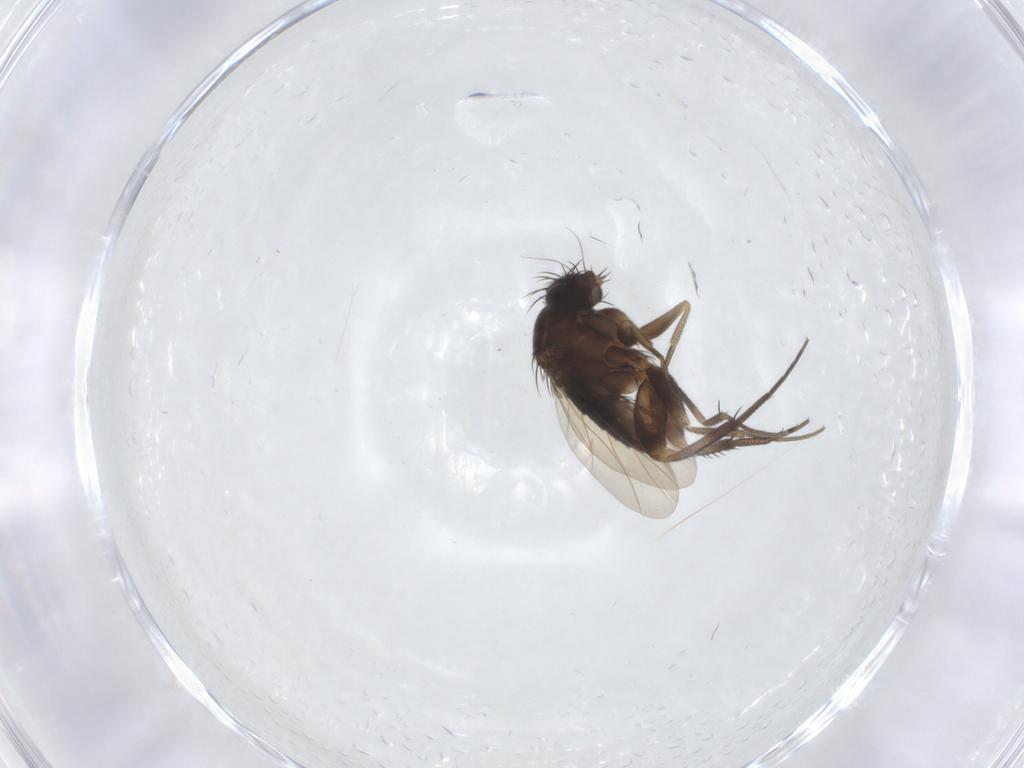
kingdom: Animalia
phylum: Arthropoda
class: Insecta
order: Diptera
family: Phoridae
